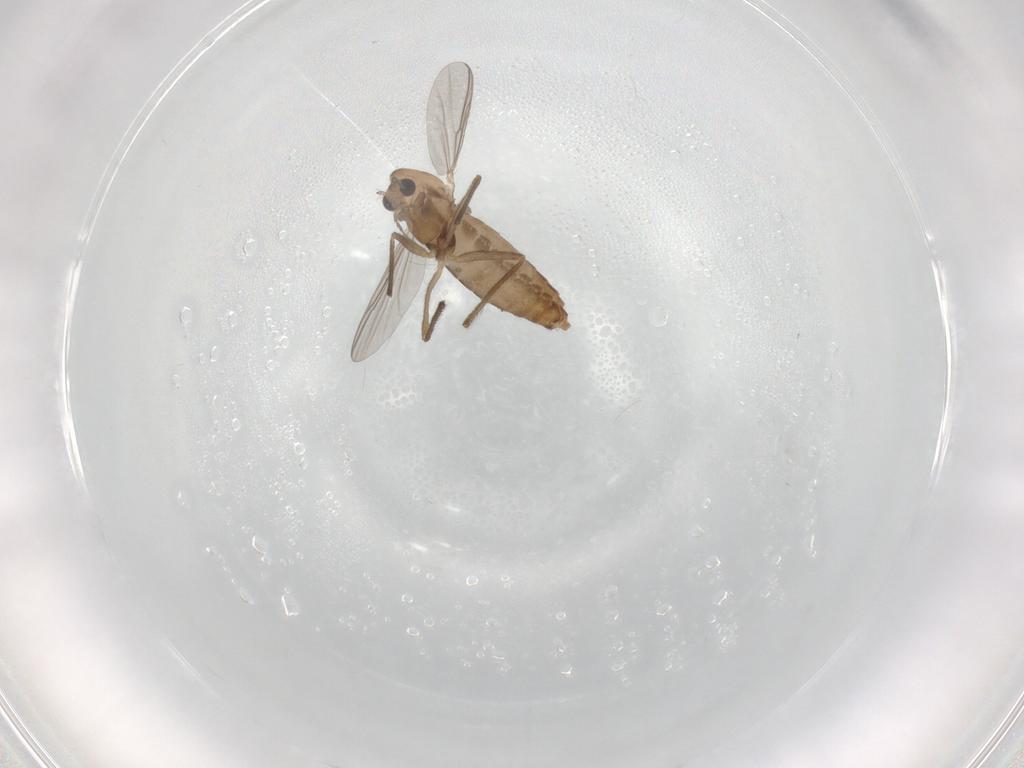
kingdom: Animalia
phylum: Arthropoda
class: Insecta
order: Diptera
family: Chironomidae
